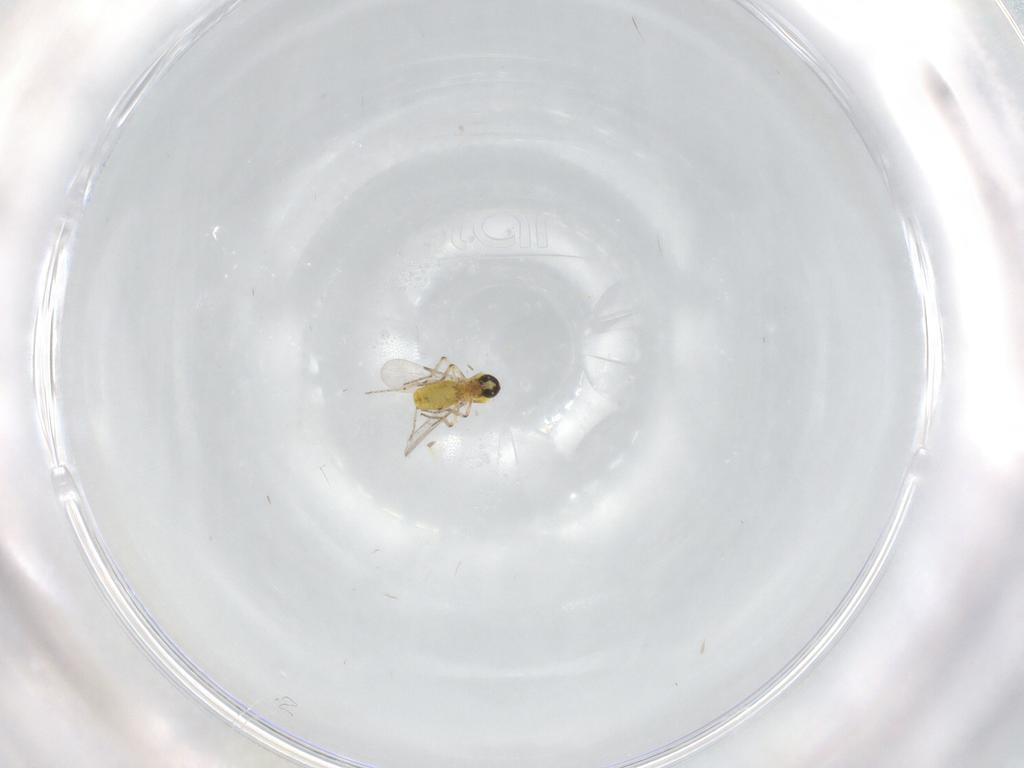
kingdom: Animalia
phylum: Arthropoda
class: Insecta
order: Diptera
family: Ceratopogonidae
